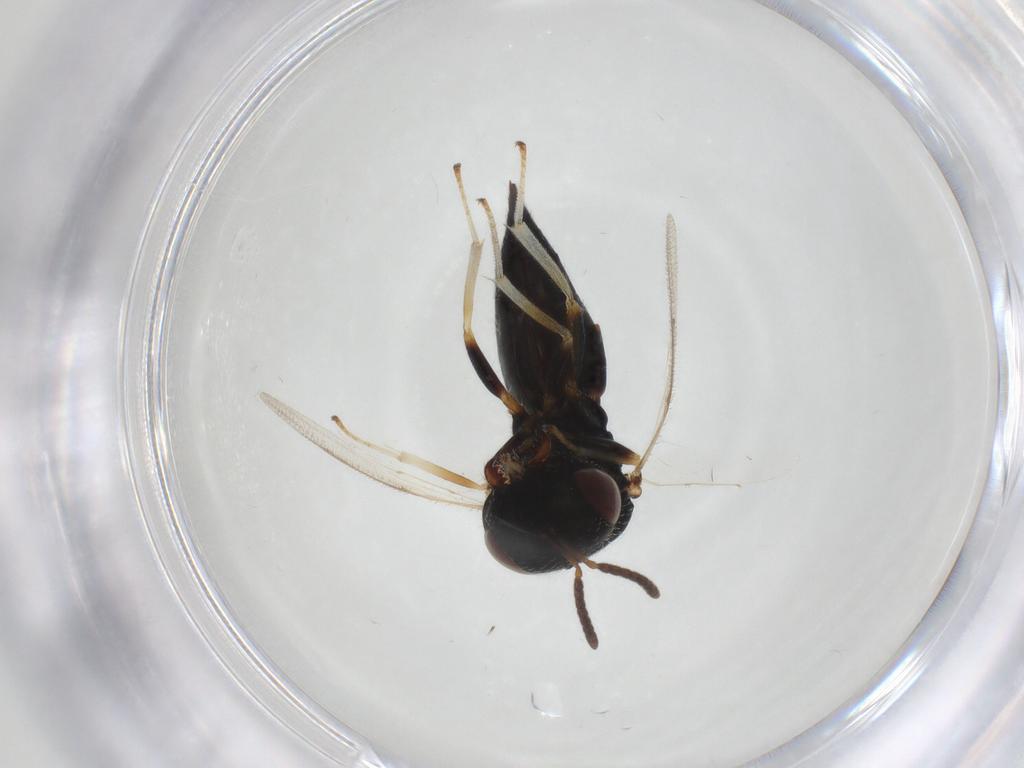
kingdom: Animalia
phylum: Arthropoda
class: Insecta
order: Hymenoptera
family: Pteromalidae
